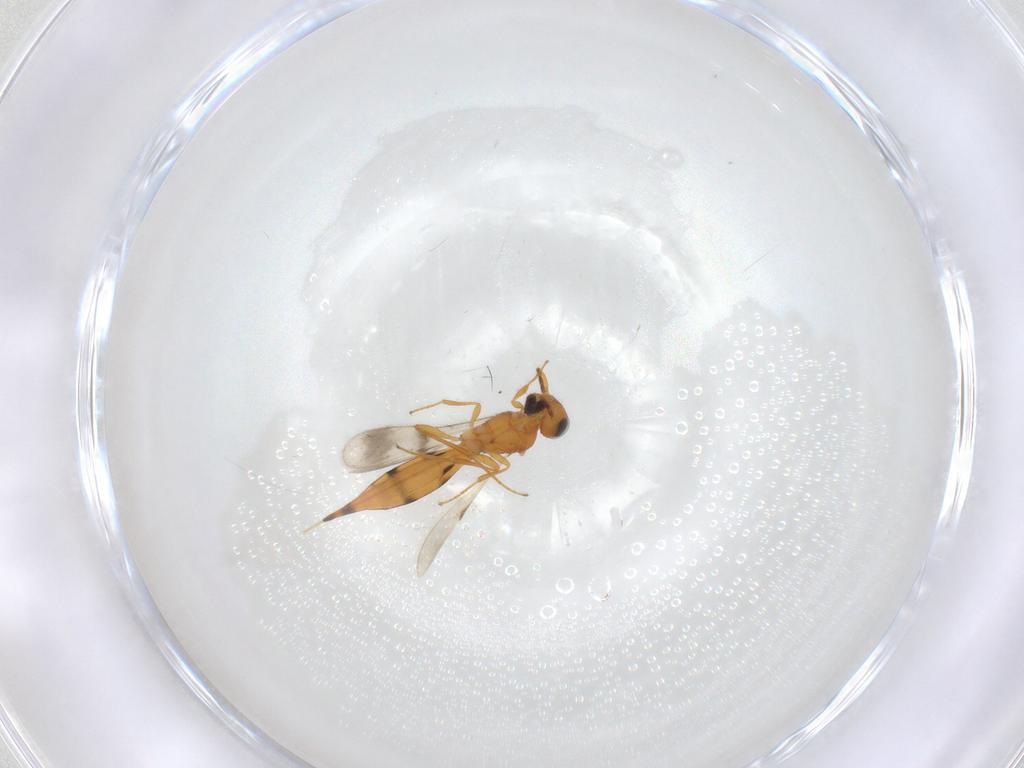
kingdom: Animalia
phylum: Arthropoda
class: Insecta
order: Hymenoptera
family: Scelionidae
